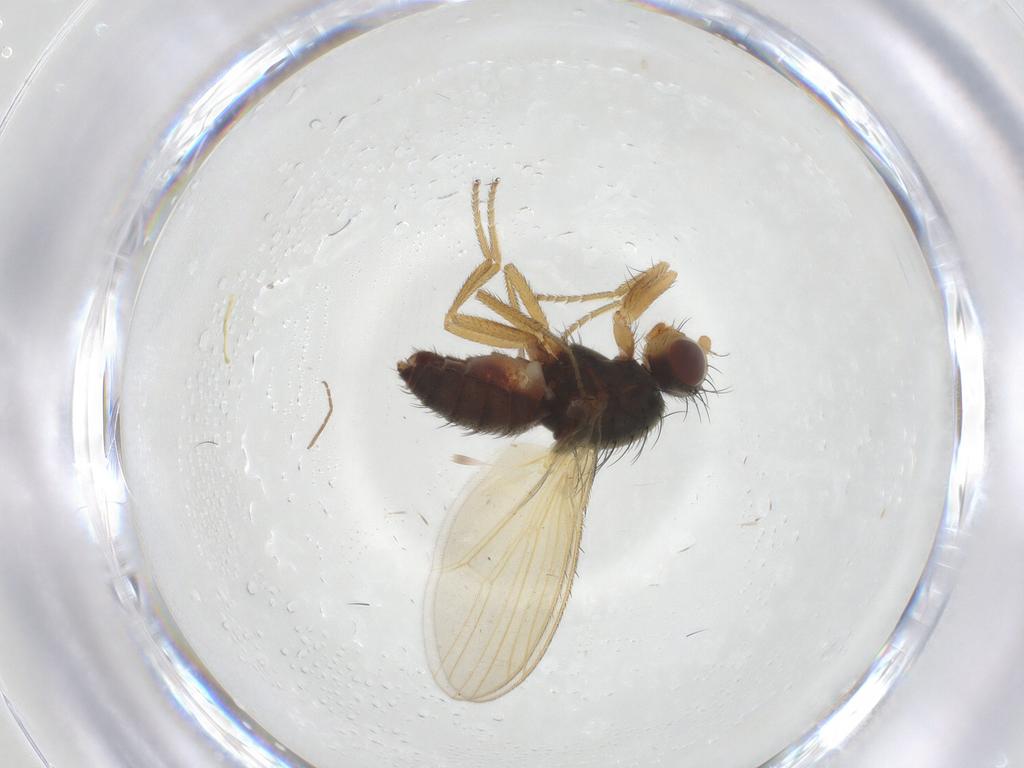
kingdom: Animalia
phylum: Arthropoda
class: Insecta
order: Diptera
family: Heleomyzidae
